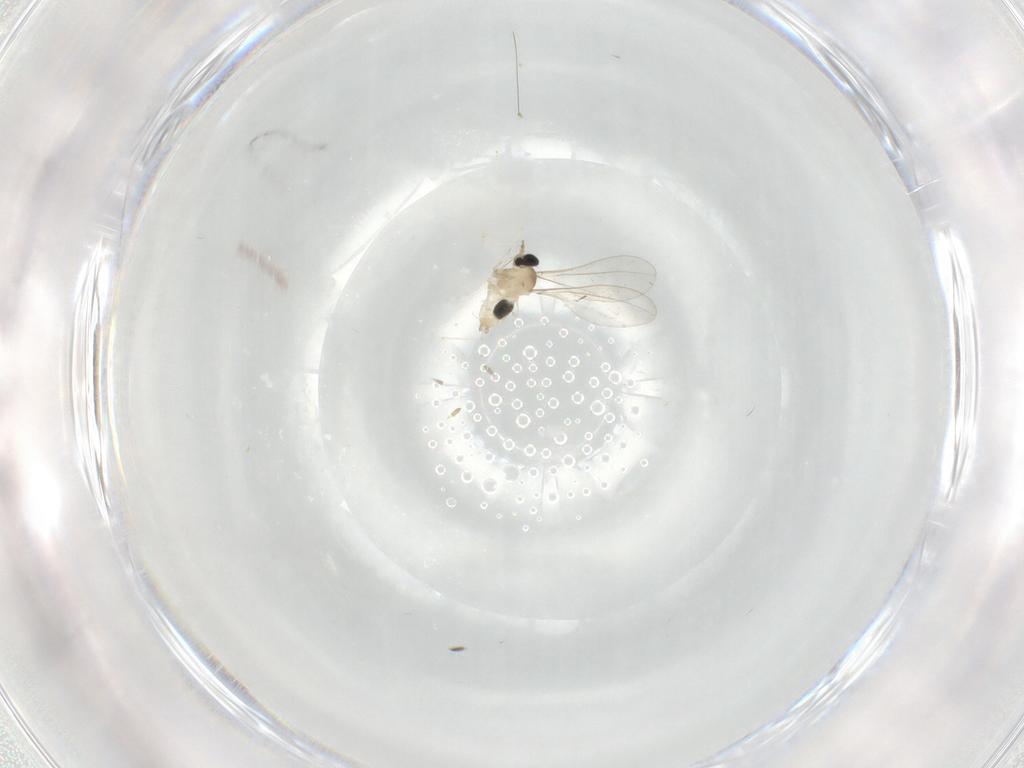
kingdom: Animalia
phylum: Arthropoda
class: Insecta
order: Diptera
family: Cecidomyiidae
